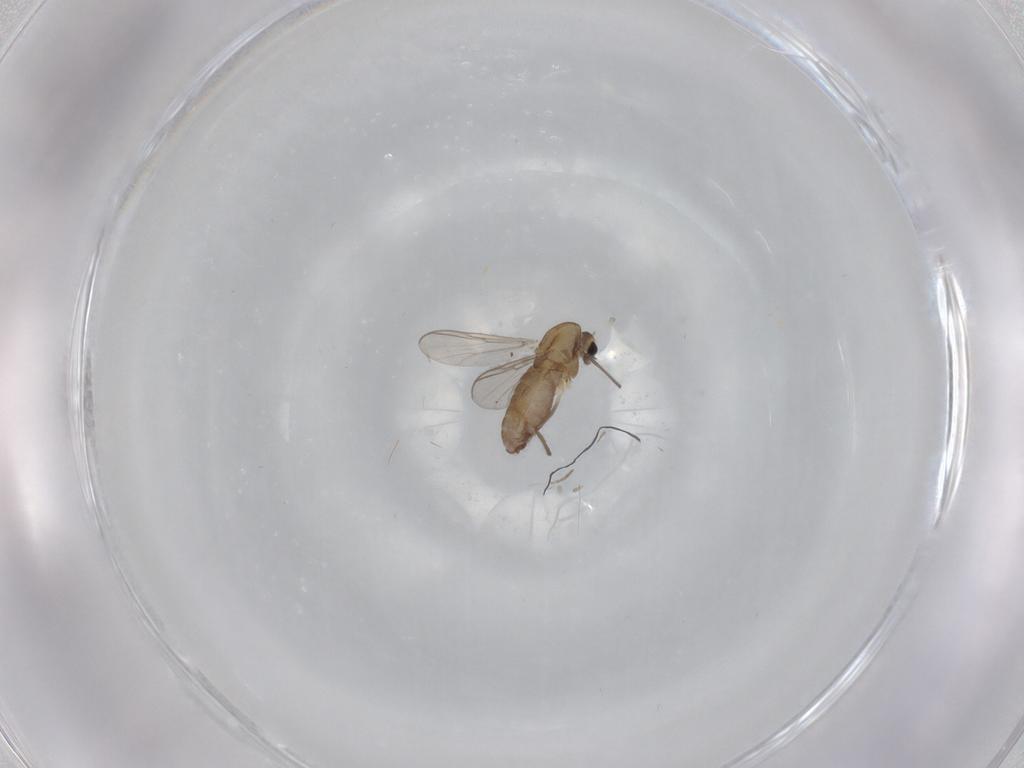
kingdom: Animalia
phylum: Arthropoda
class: Insecta
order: Diptera
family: Chironomidae
